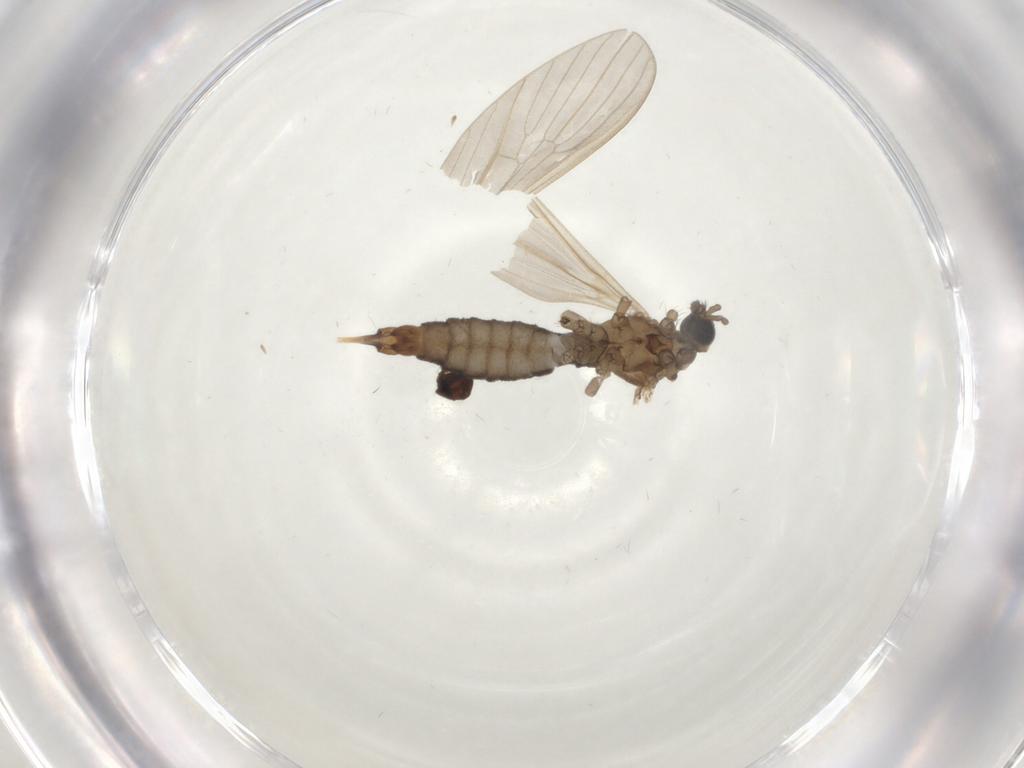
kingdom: Animalia
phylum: Arthropoda
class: Insecta
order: Diptera
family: Limoniidae
